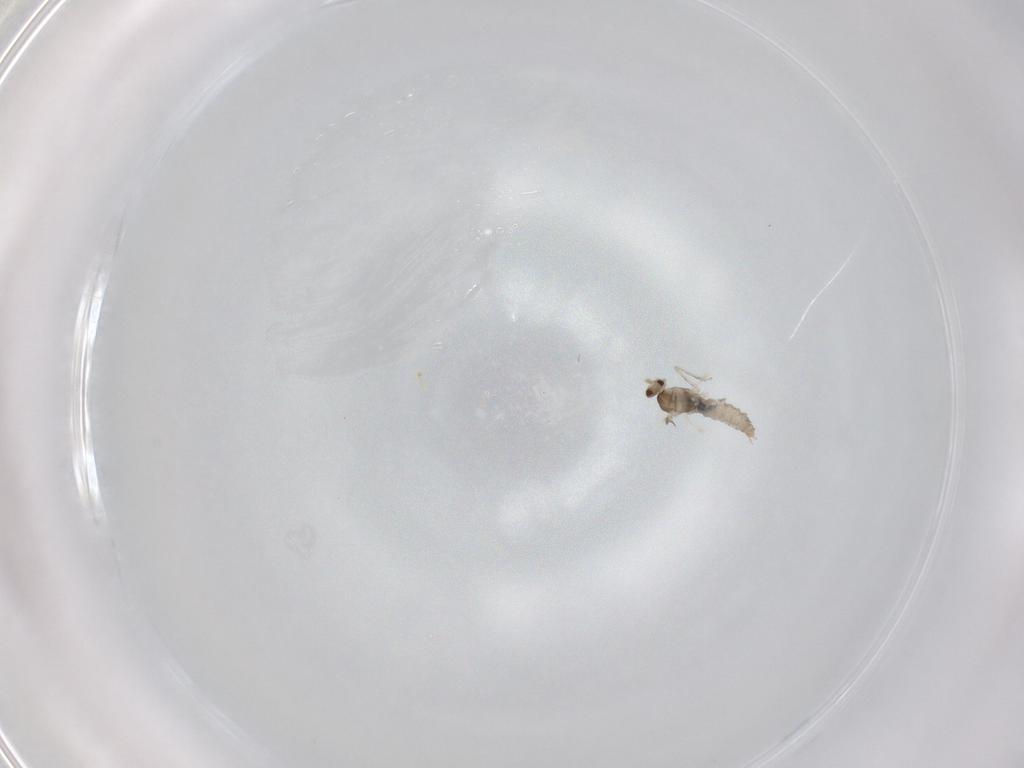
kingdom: Animalia
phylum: Arthropoda
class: Insecta
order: Diptera
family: Cecidomyiidae
